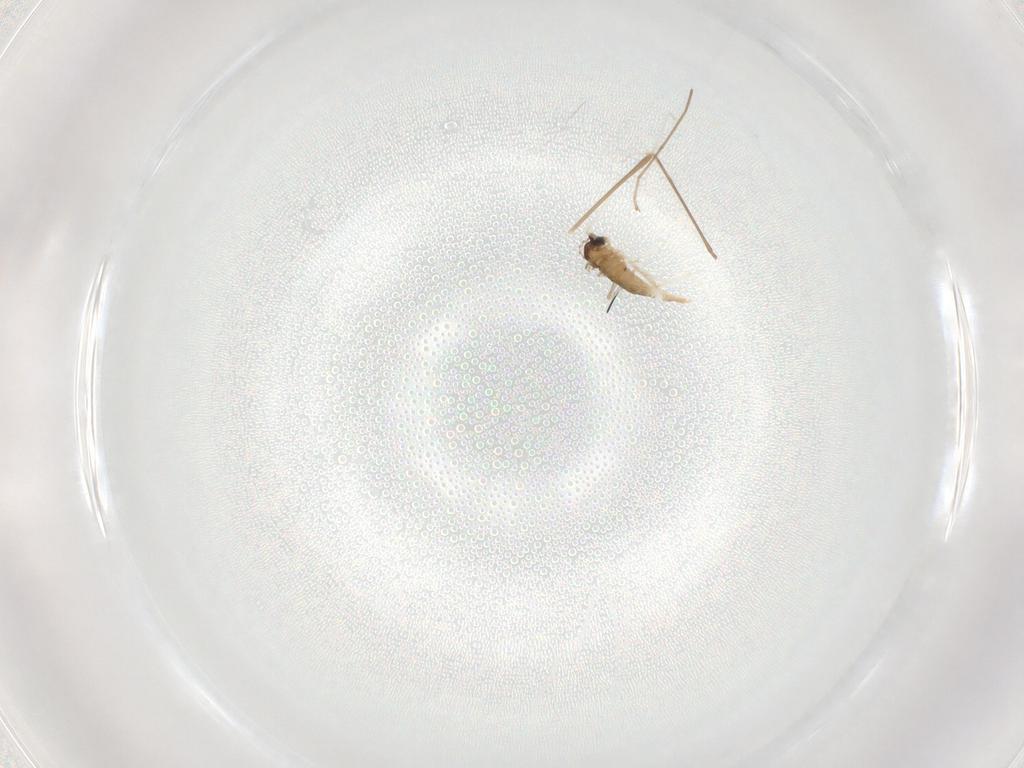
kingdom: Animalia
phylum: Arthropoda
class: Insecta
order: Diptera
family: Cecidomyiidae
